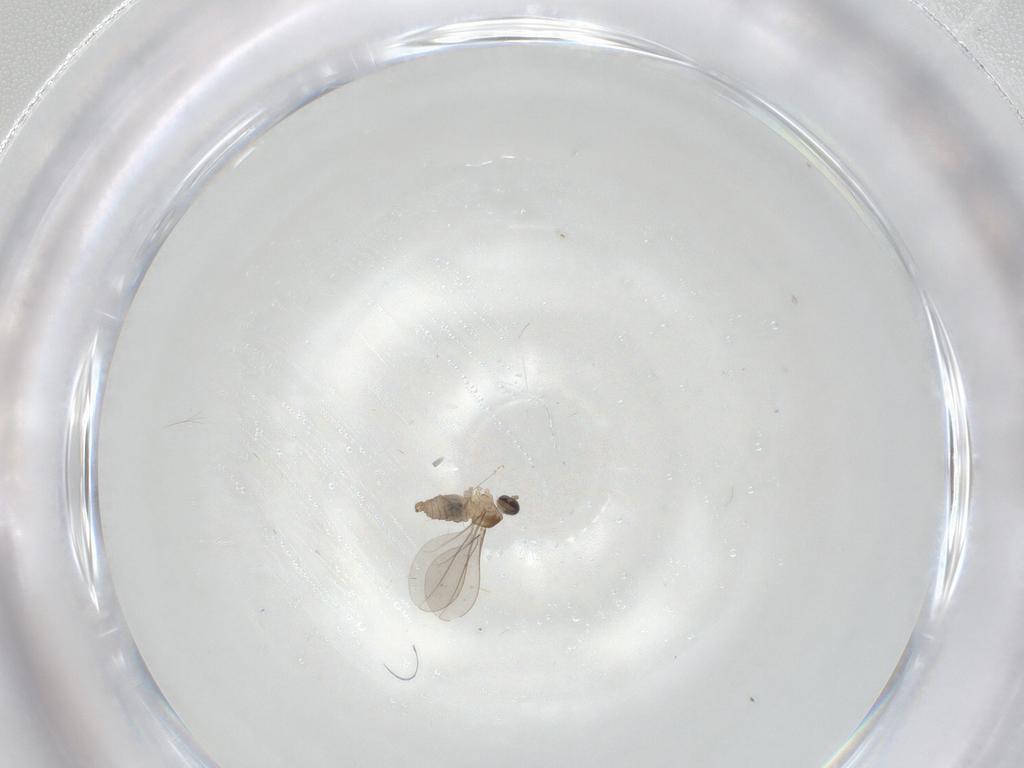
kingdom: Animalia
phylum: Arthropoda
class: Insecta
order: Diptera
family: Cecidomyiidae
